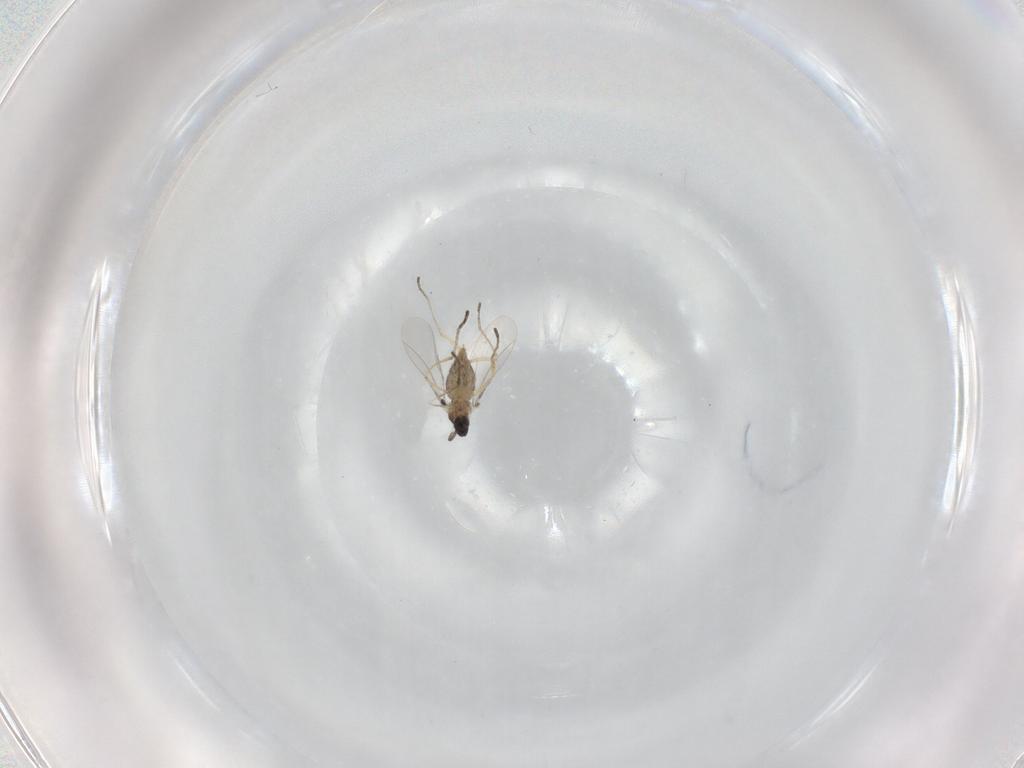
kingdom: Animalia
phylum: Arthropoda
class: Insecta
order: Diptera
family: Cecidomyiidae
